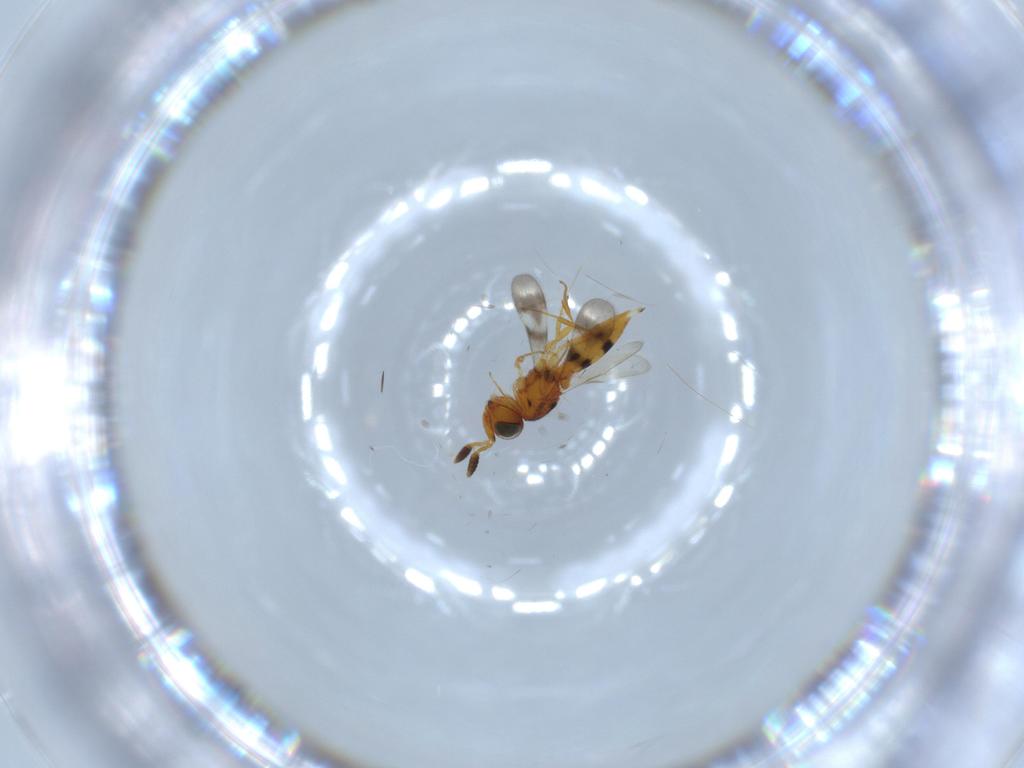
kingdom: Animalia
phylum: Arthropoda
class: Insecta
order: Hymenoptera
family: Scelionidae
